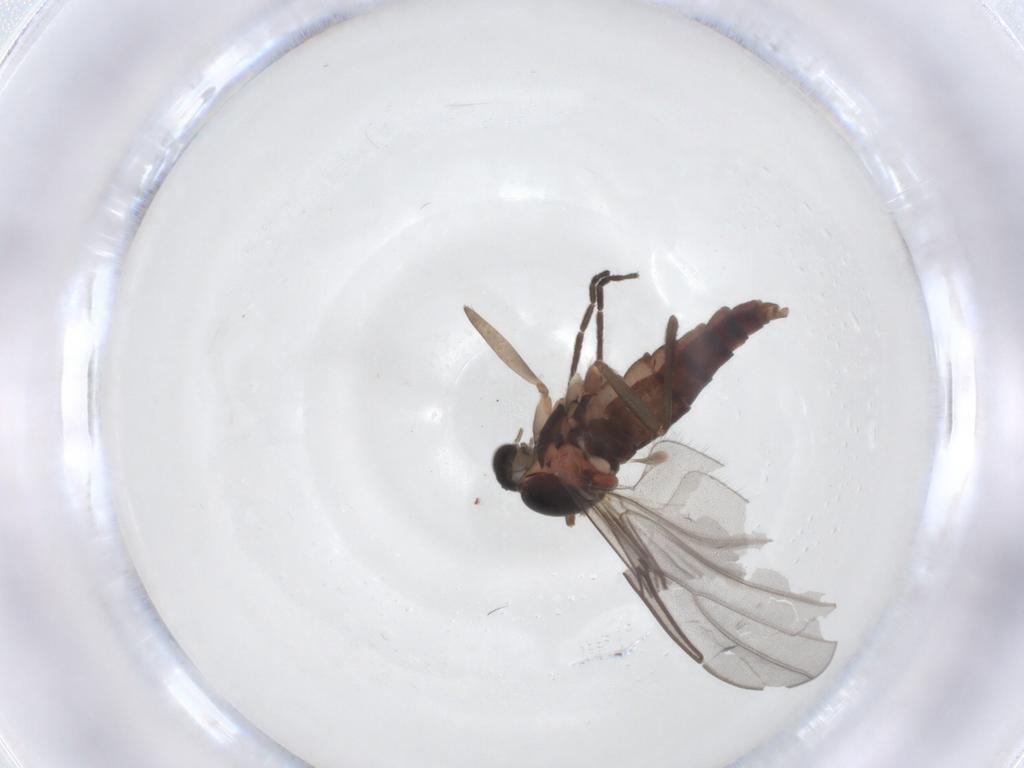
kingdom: Animalia
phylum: Arthropoda
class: Insecta
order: Diptera
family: Cecidomyiidae
